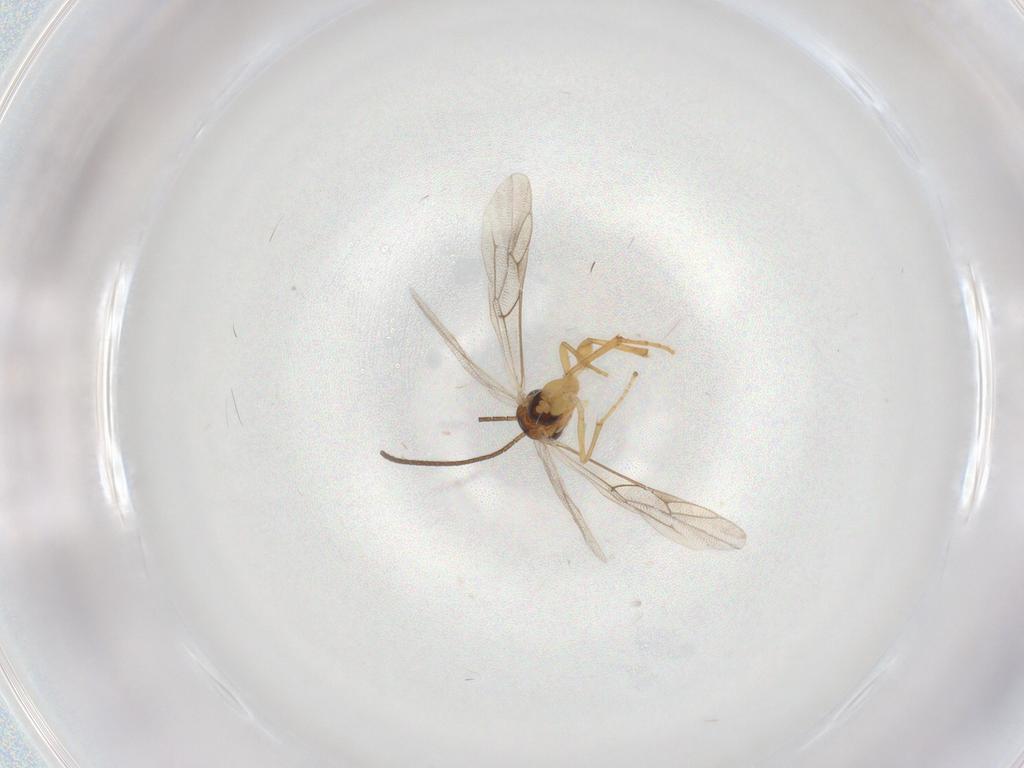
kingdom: Animalia
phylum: Arthropoda
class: Insecta
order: Hymenoptera
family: Ichneumonidae
